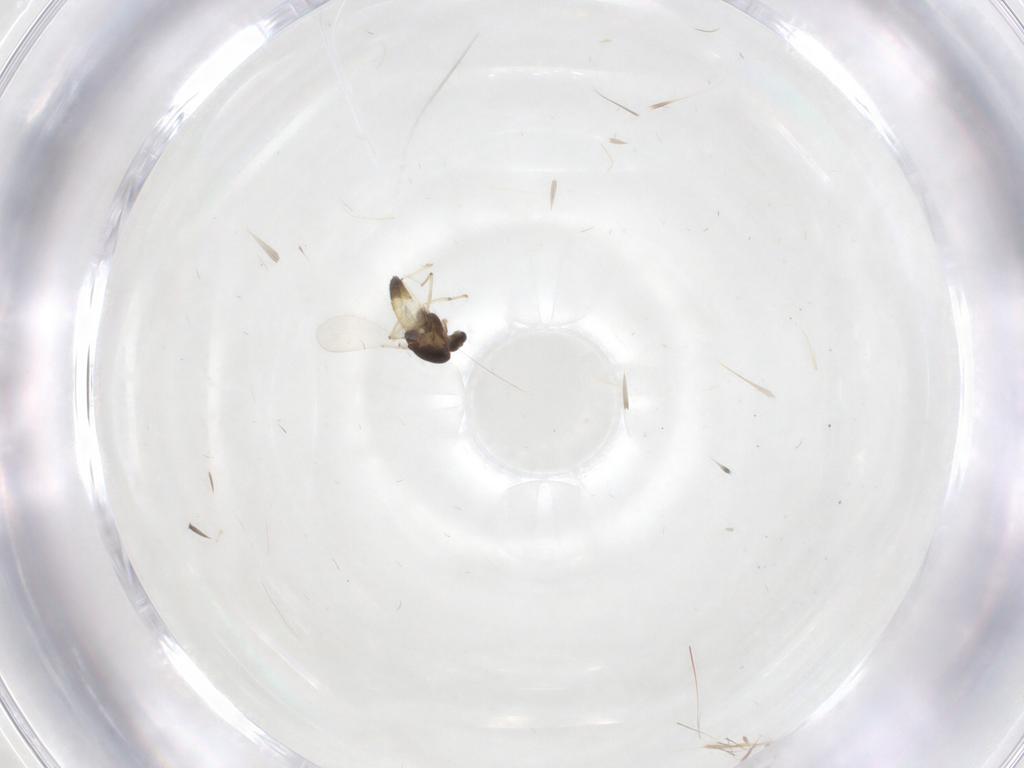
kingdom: Animalia
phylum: Arthropoda
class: Insecta
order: Diptera
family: Chironomidae
